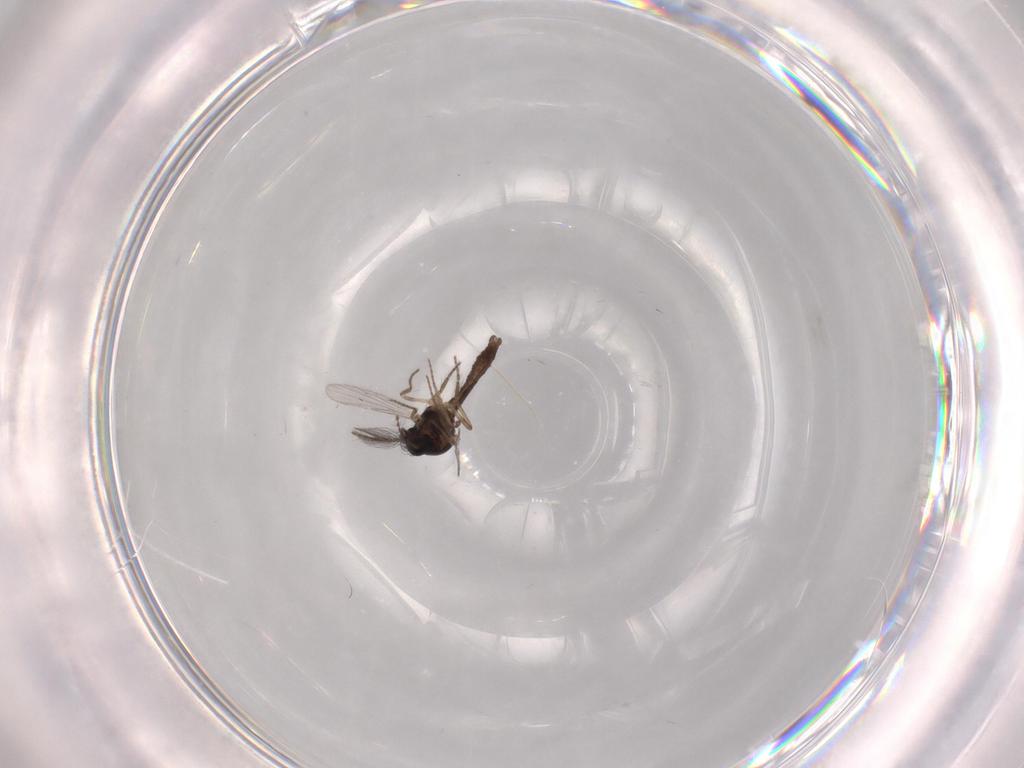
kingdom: Animalia
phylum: Arthropoda
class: Insecta
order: Diptera
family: Ceratopogonidae
